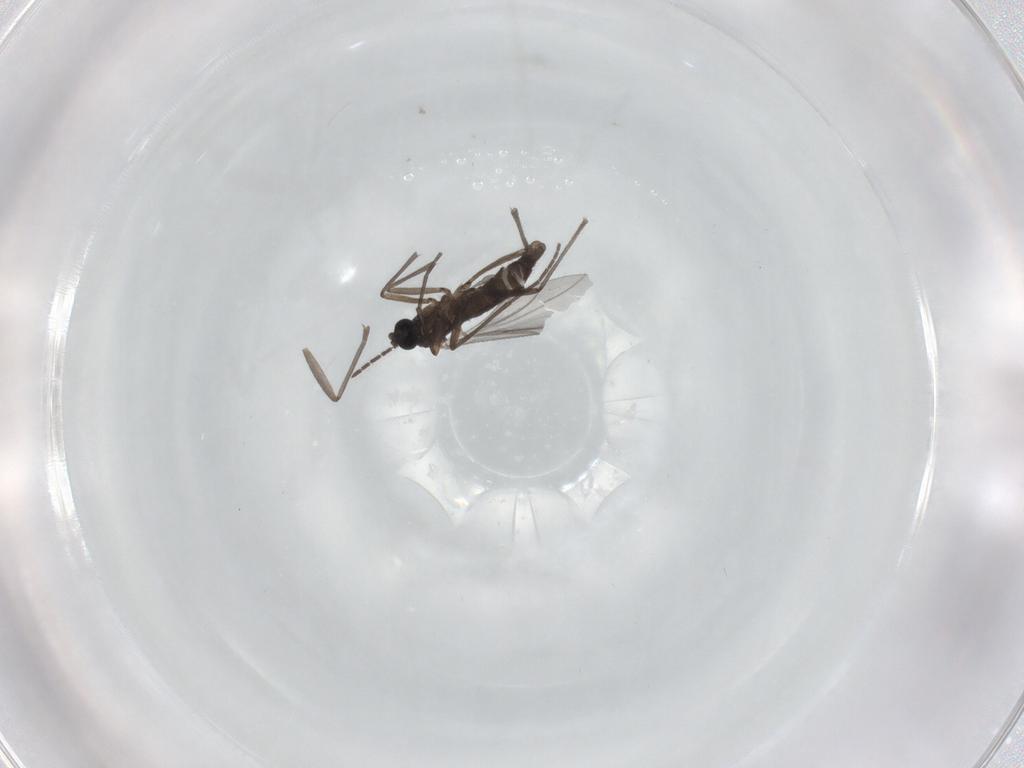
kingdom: Animalia
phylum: Arthropoda
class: Insecta
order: Diptera
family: Sciaridae
